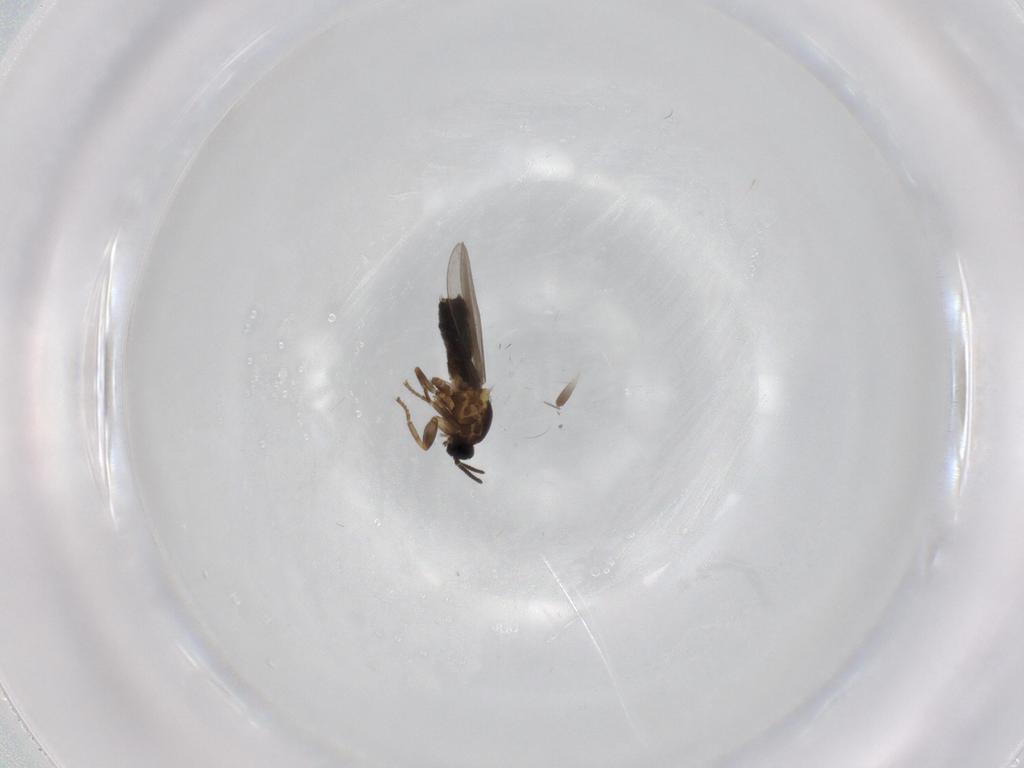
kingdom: Animalia
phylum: Arthropoda
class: Insecta
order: Diptera
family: Scatopsidae
